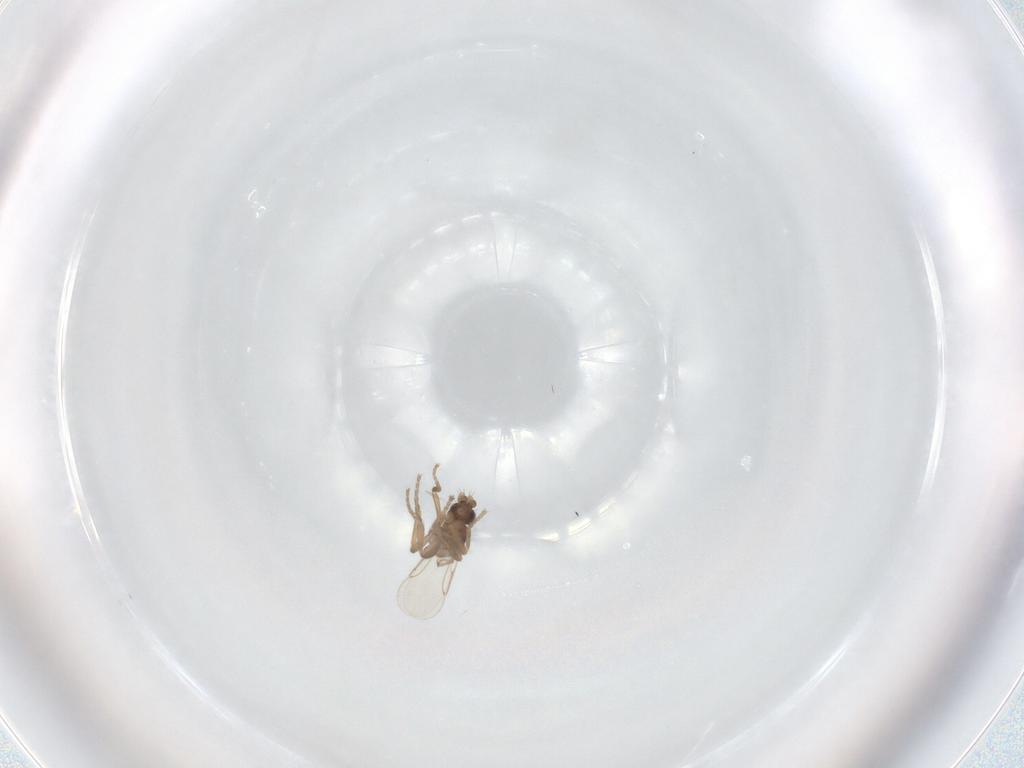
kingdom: Animalia
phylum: Arthropoda
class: Insecta
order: Diptera
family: Phoridae
